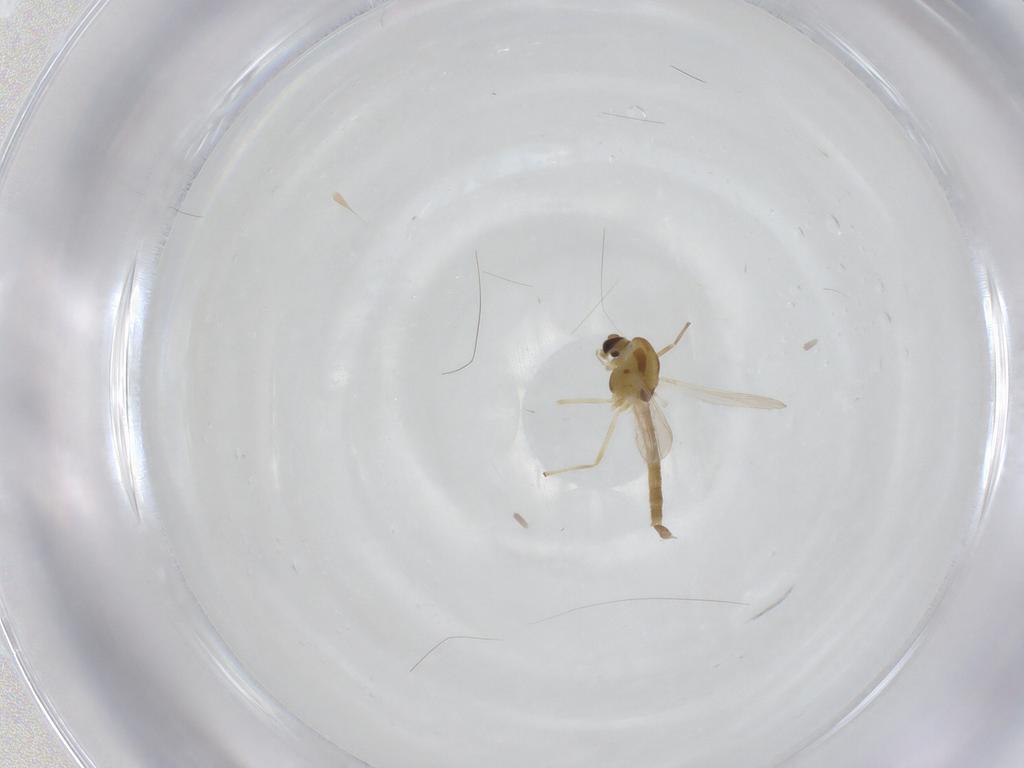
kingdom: Animalia
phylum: Arthropoda
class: Insecta
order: Diptera
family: Chironomidae
